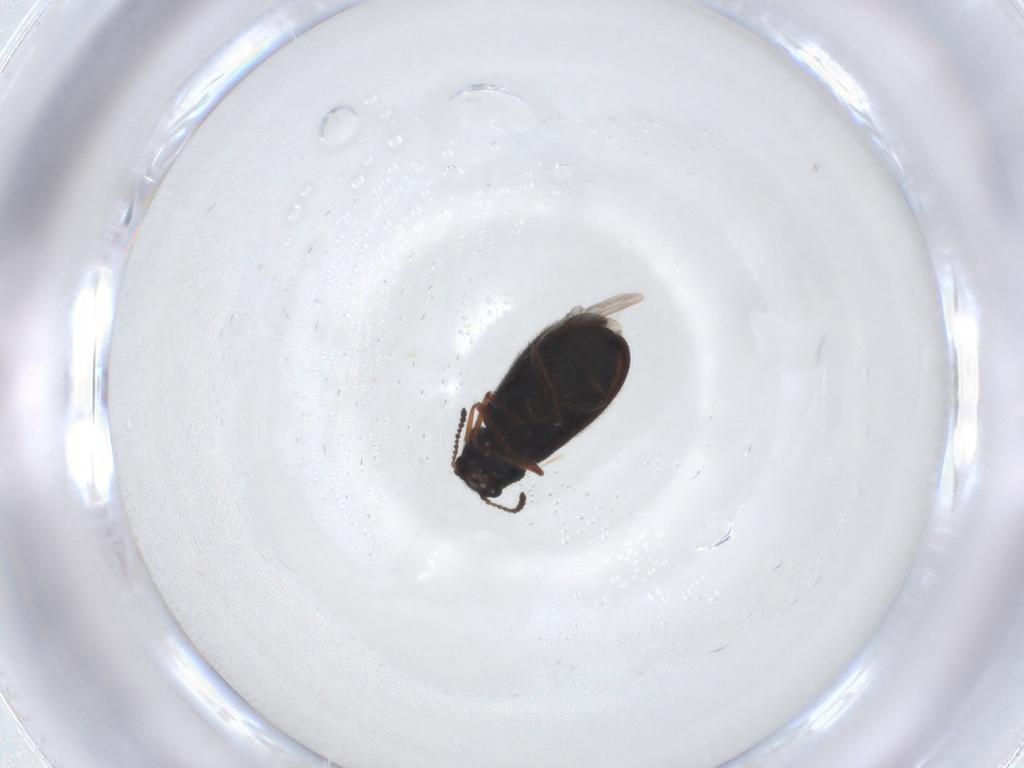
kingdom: Animalia
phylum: Arthropoda
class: Insecta
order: Coleoptera
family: Melyridae
